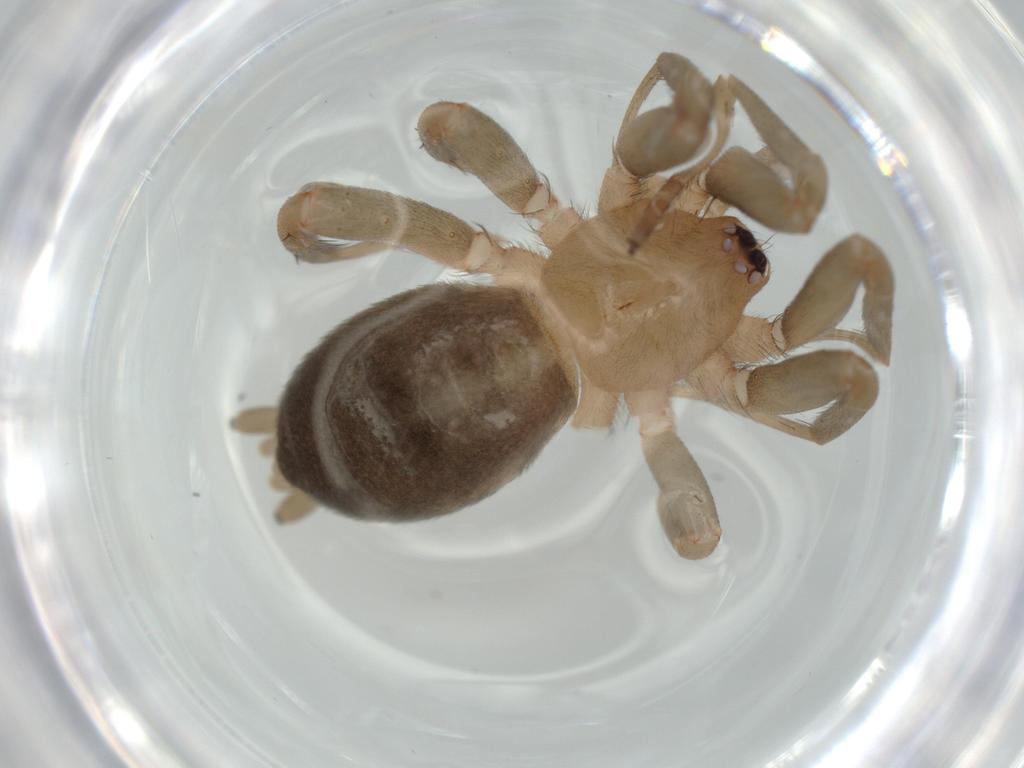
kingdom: Animalia
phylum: Arthropoda
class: Arachnida
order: Araneae
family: Gnaphosidae
